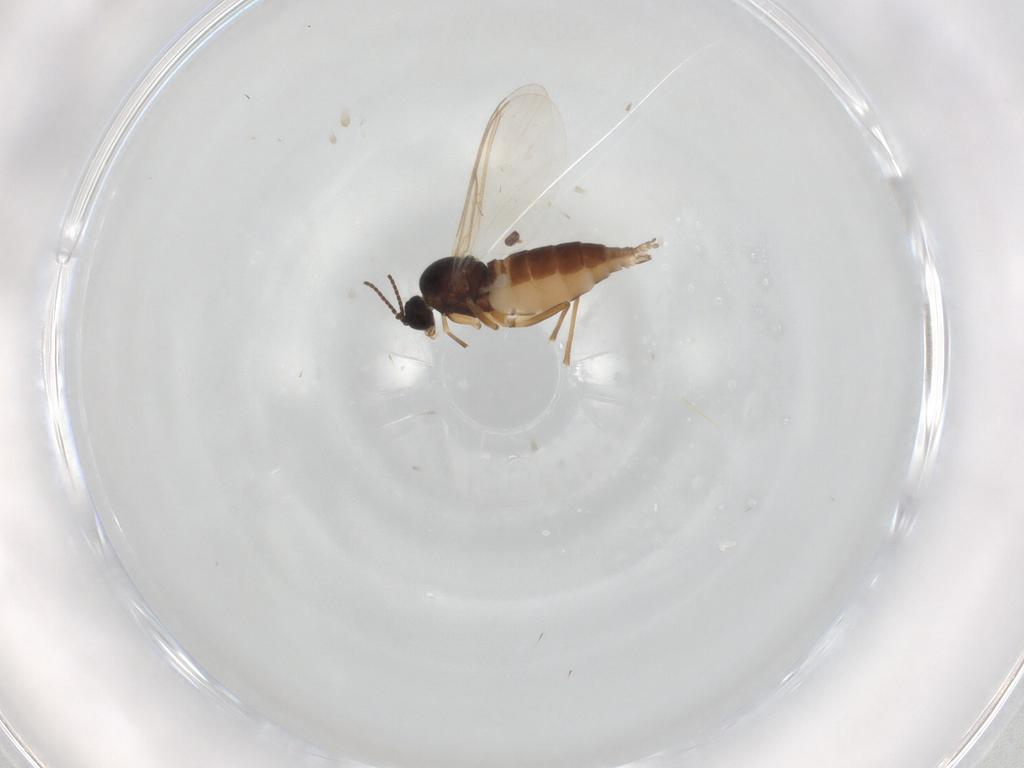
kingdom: Animalia
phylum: Arthropoda
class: Insecta
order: Diptera
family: Sciaridae
